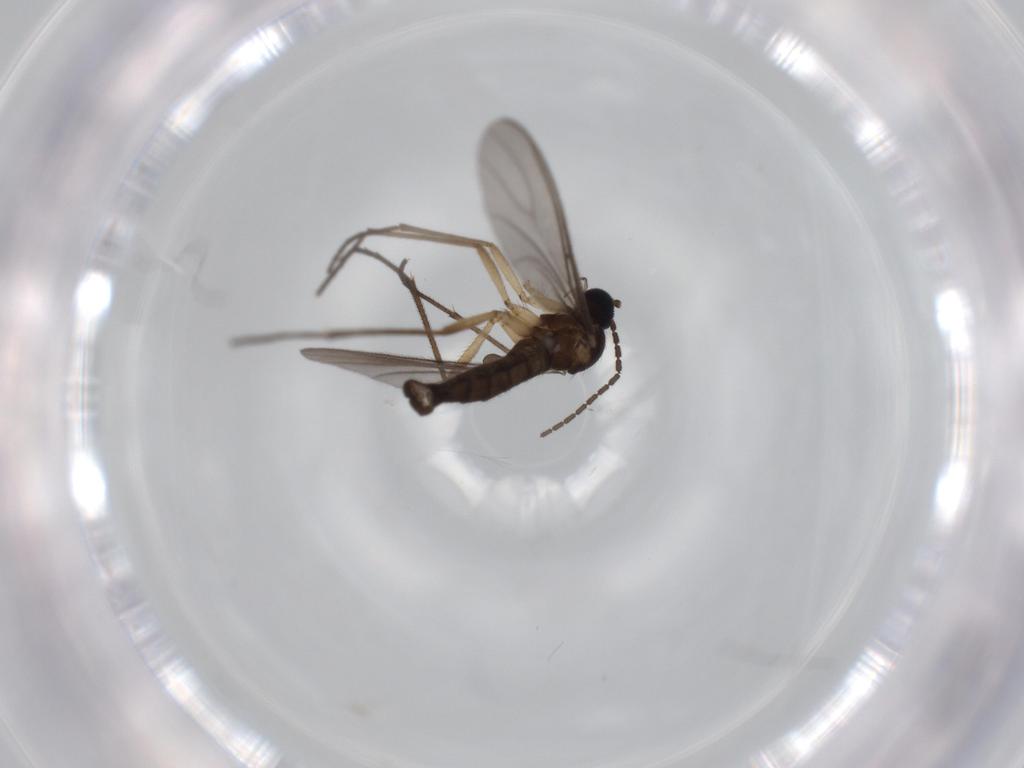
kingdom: Animalia
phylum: Arthropoda
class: Insecta
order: Diptera
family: Sciaridae
